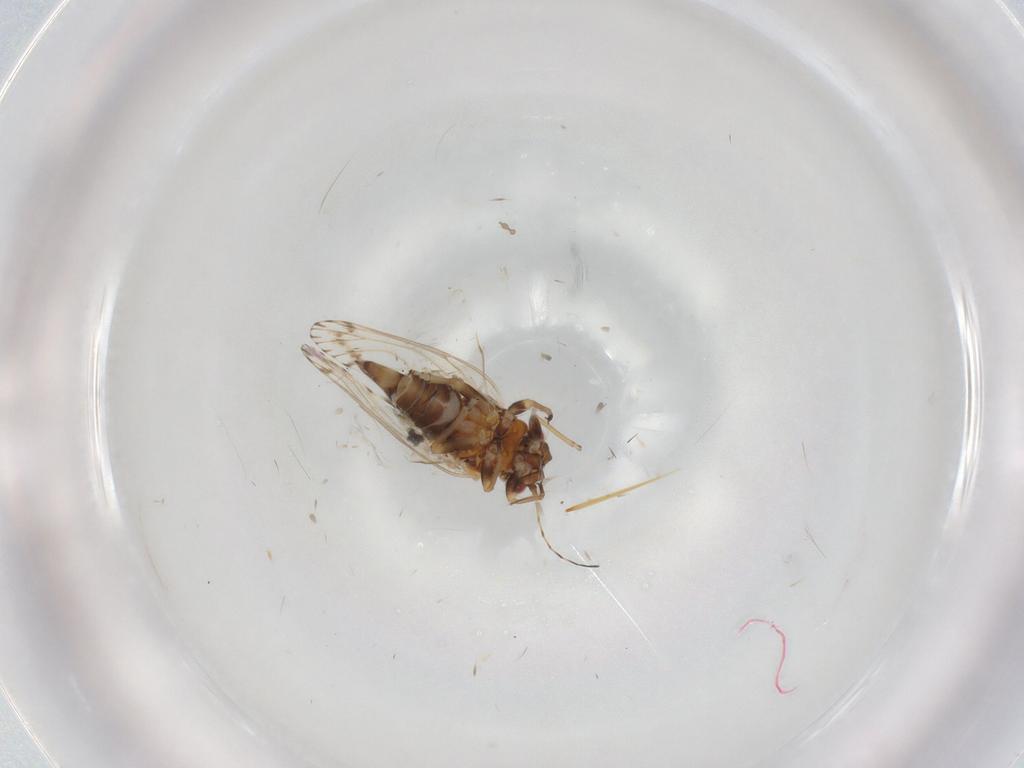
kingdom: Animalia
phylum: Arthropoda
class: Insecta
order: Hemiptera
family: Psyllidae
